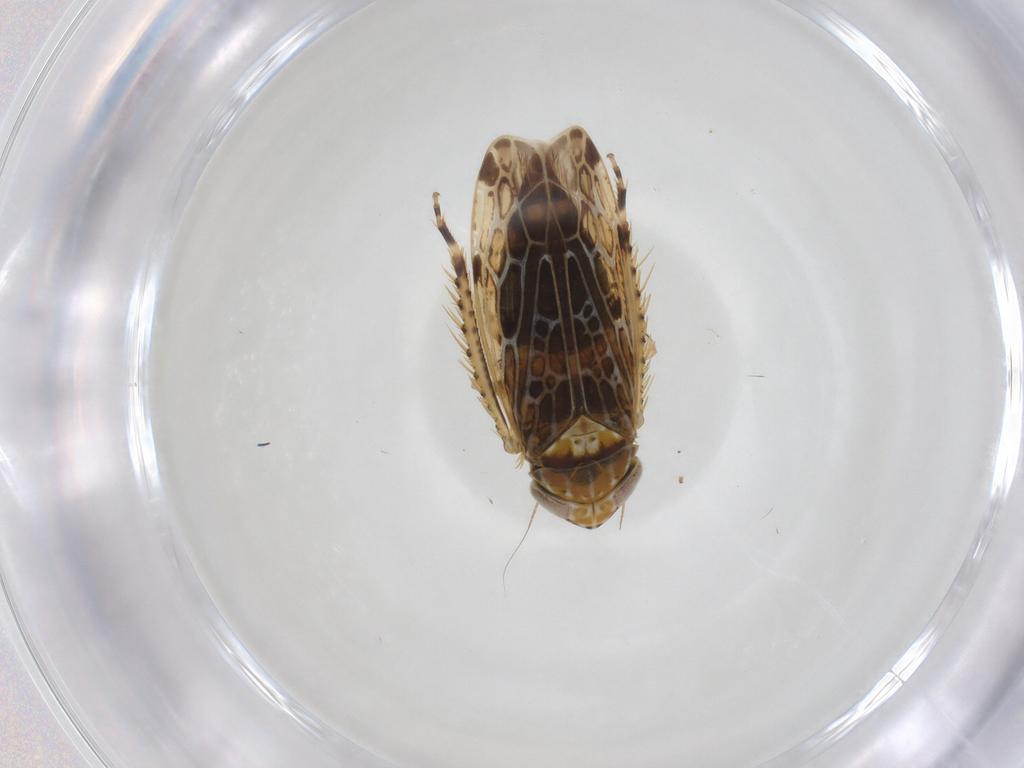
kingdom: Animalia
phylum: Arthropoda
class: Insecta
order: Hemiptera
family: Cicadellidae
